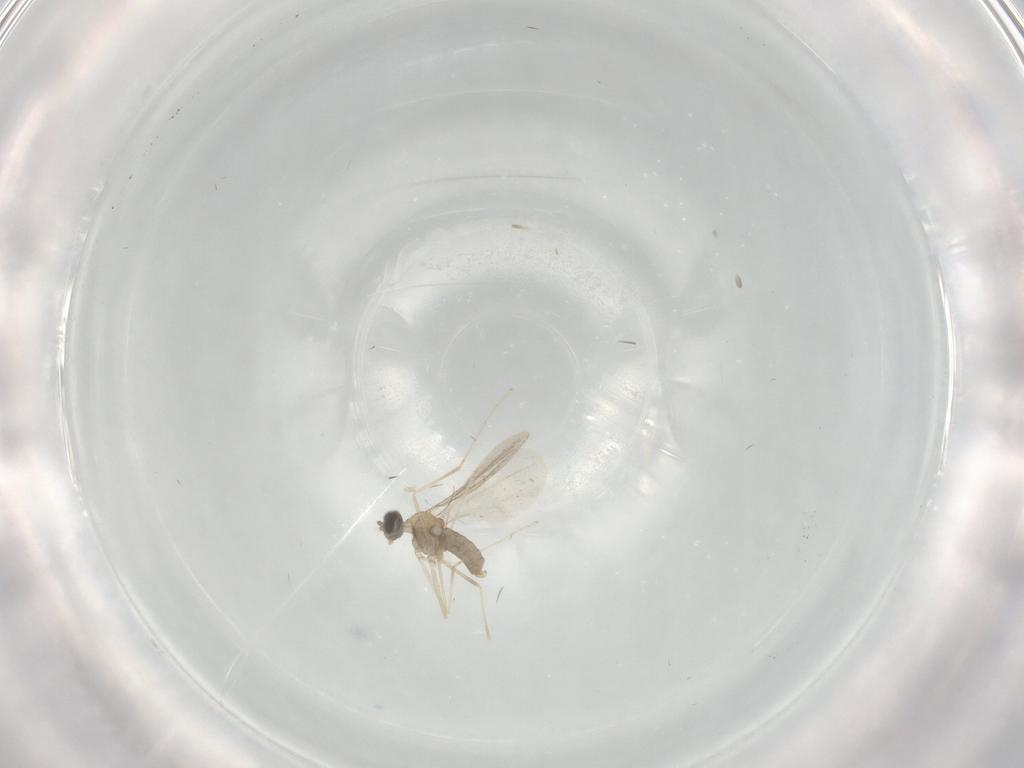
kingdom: Animalia
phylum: Arthropoda
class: Insecta
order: Diptera
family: Cecidomyiidae
